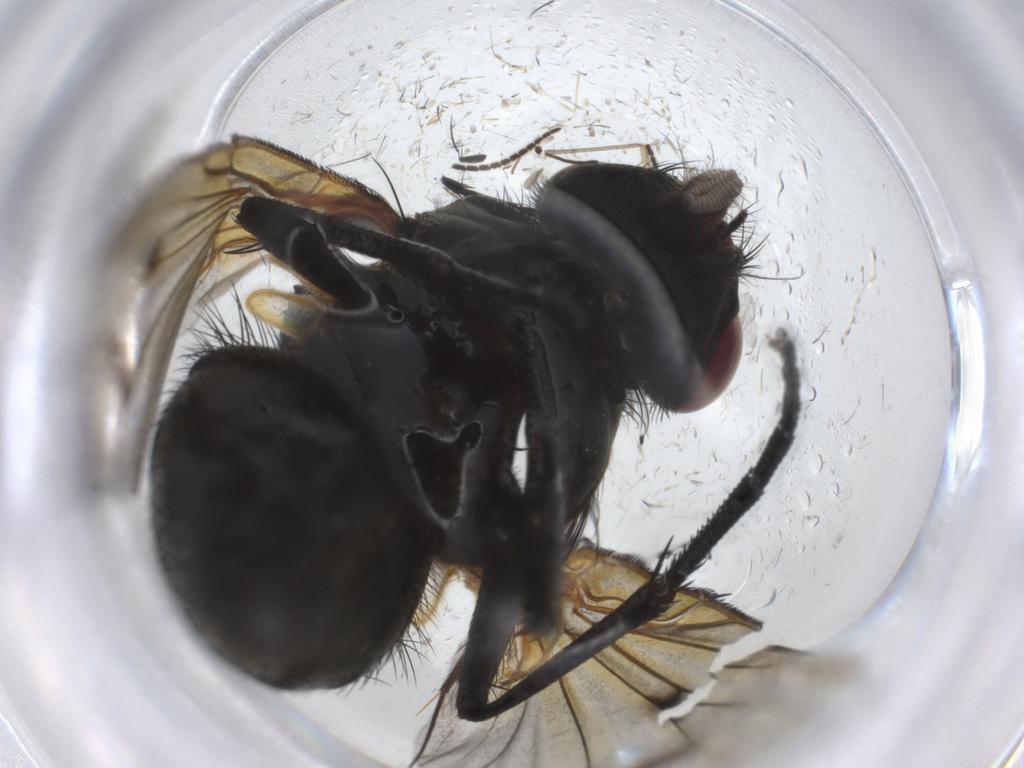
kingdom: Animalia
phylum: Arthropoda
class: Insecta
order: Diptera
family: Muscidae
